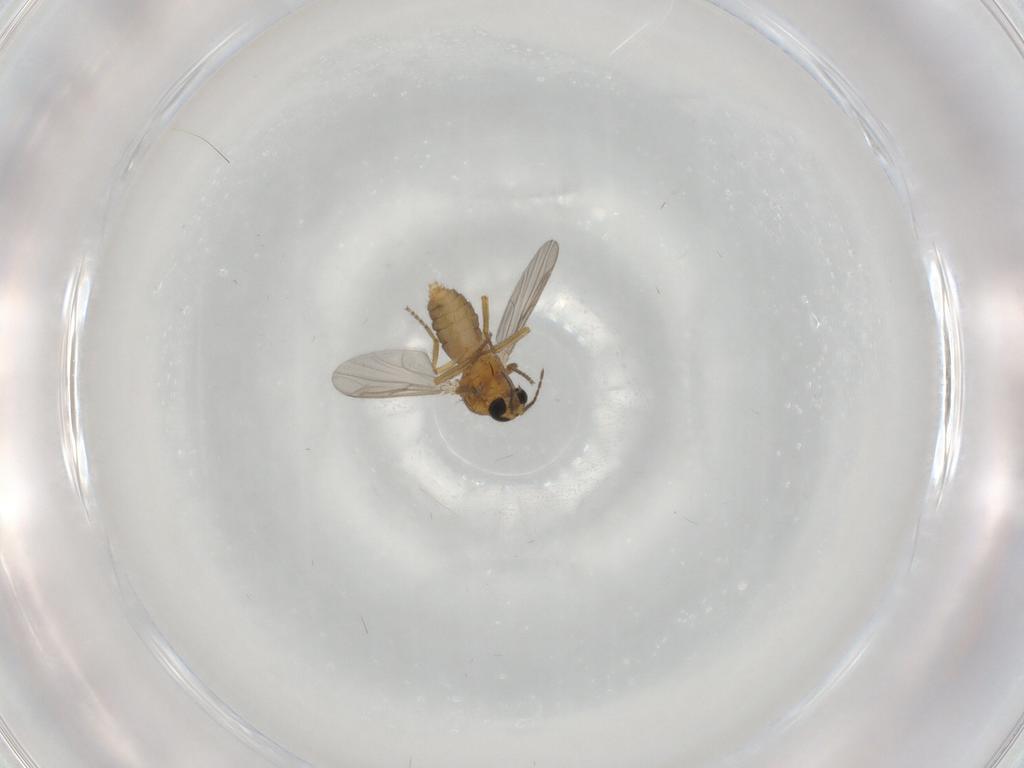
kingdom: Animalia
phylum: Arthropoda
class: Insecta
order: Diptera
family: Ceratopogonidae
